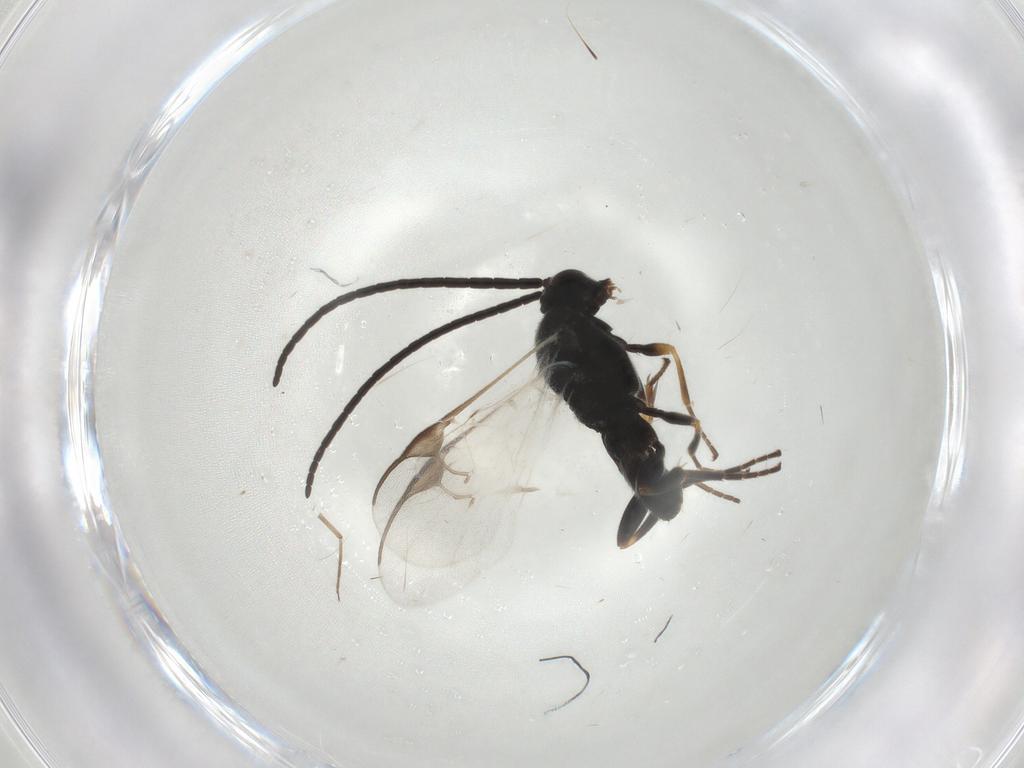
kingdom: Animalia
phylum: Arthropoda
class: Insecta
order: Hymenoptera
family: Braconidae
